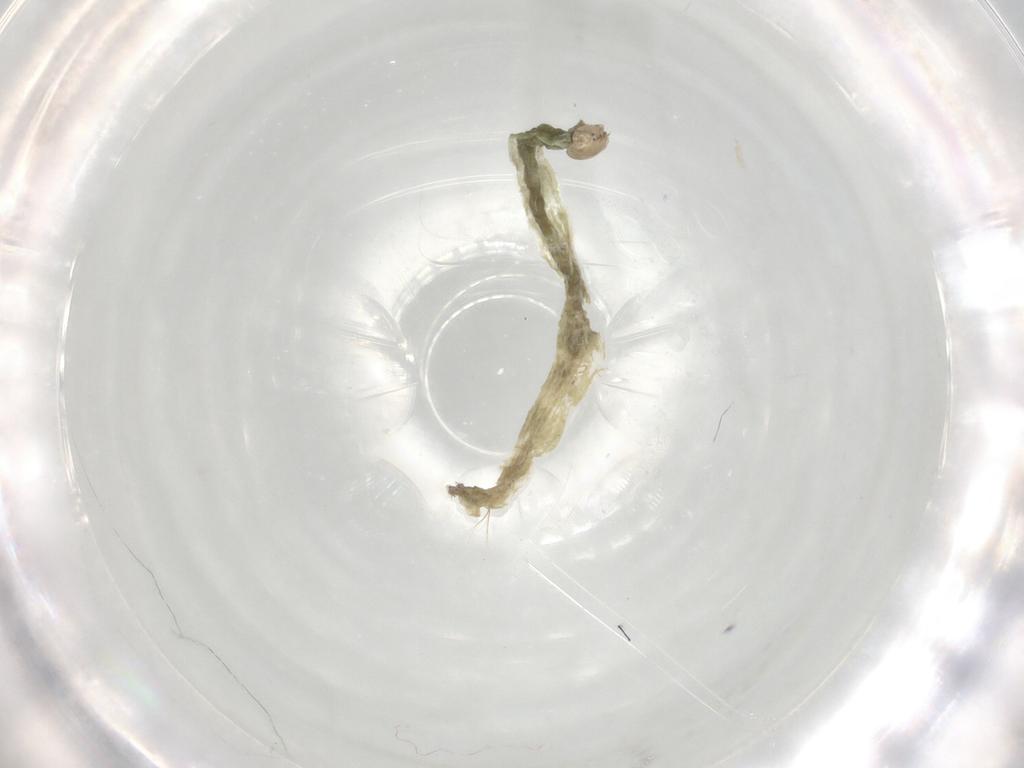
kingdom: Animalia
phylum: Arthropoda
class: Insecta
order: Diptera
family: Chironomidae
